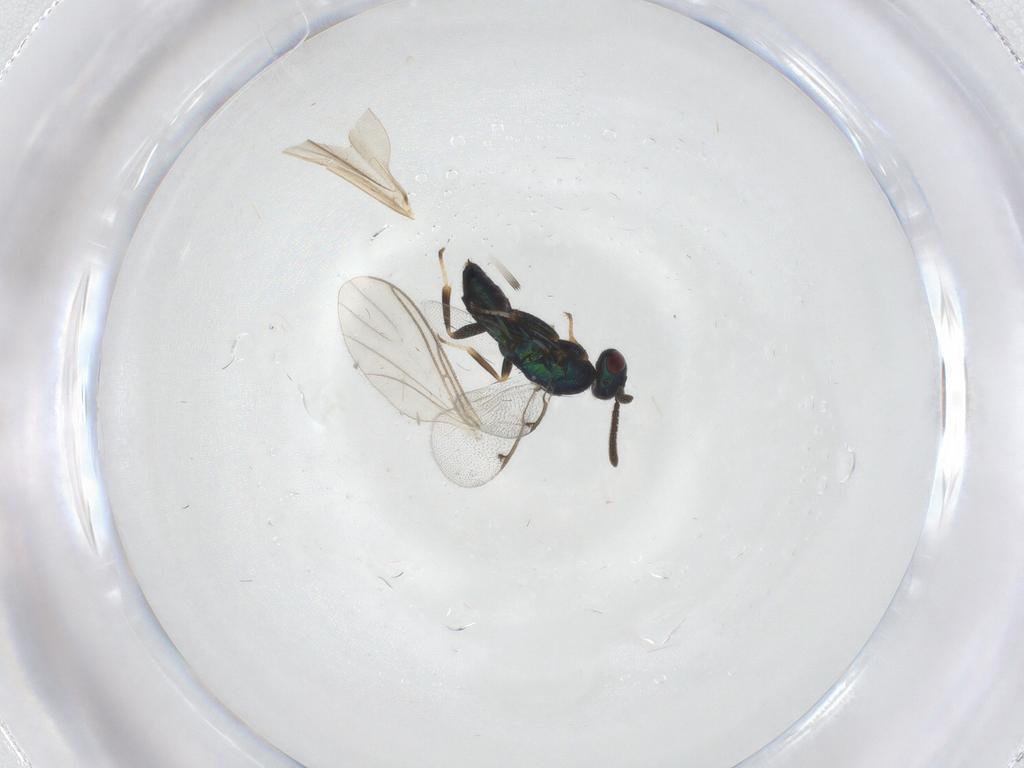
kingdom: Animalia
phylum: Arthropoda
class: Insecta
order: Hymenoptera
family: Torymidae
